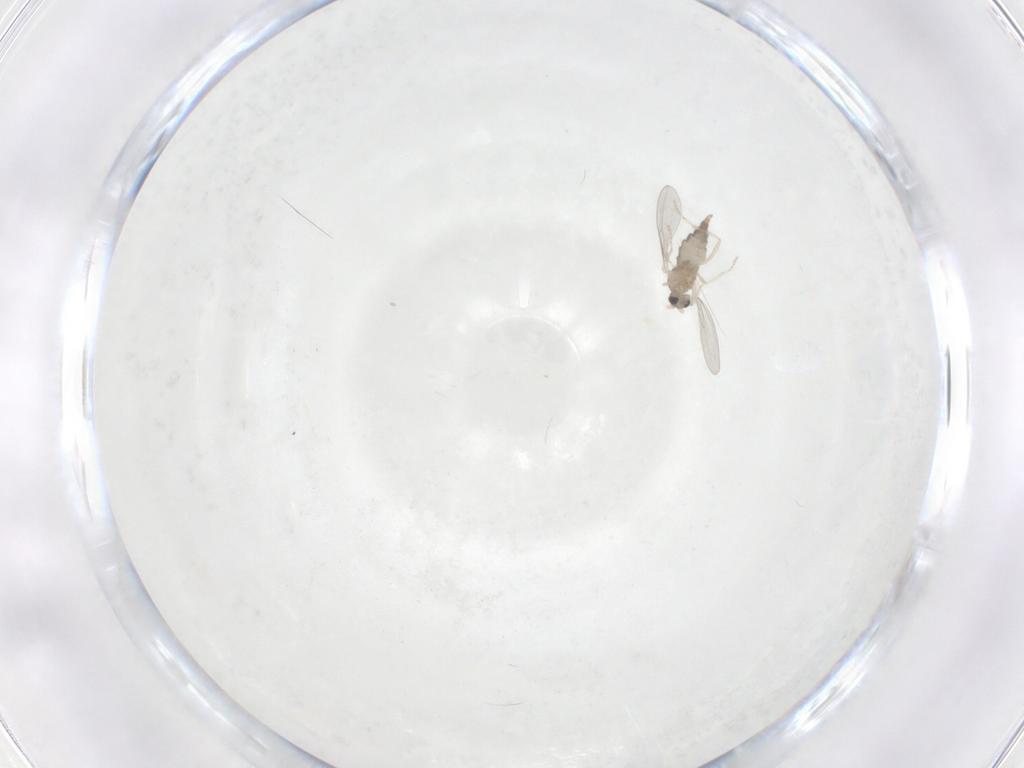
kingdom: Animalia
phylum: Arthropoda
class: Insecta
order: Diptera
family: Cecidomyiidae
